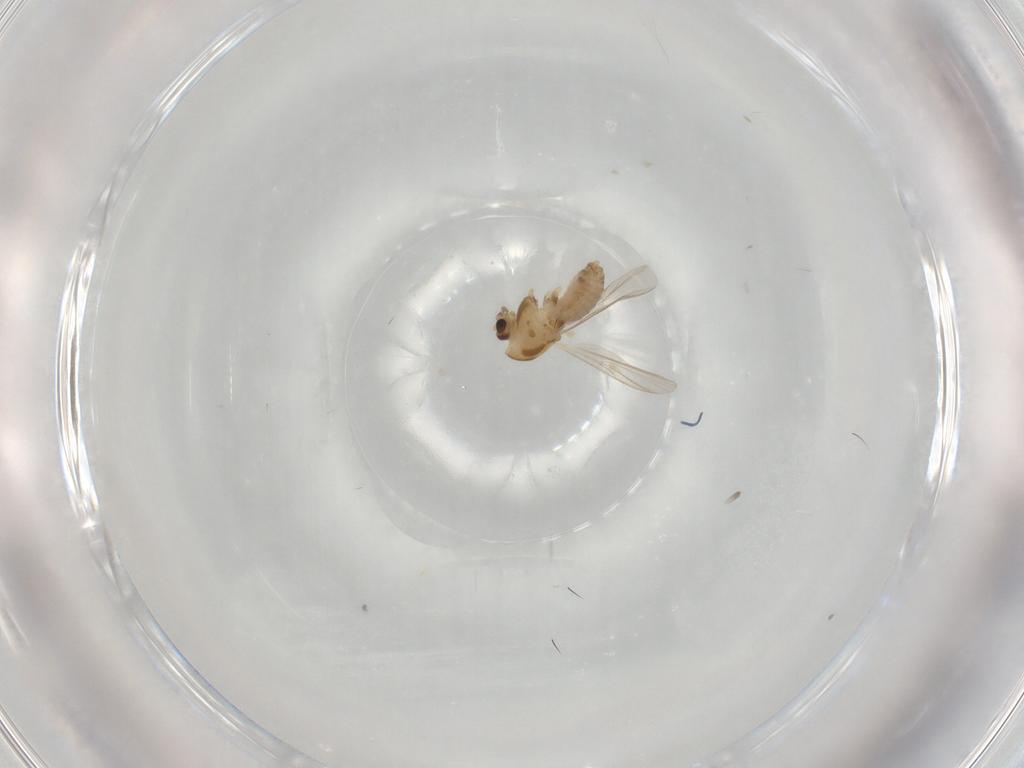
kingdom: Animalia
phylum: Arthropoda
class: Insecta
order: Diptera
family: Chironomidae
